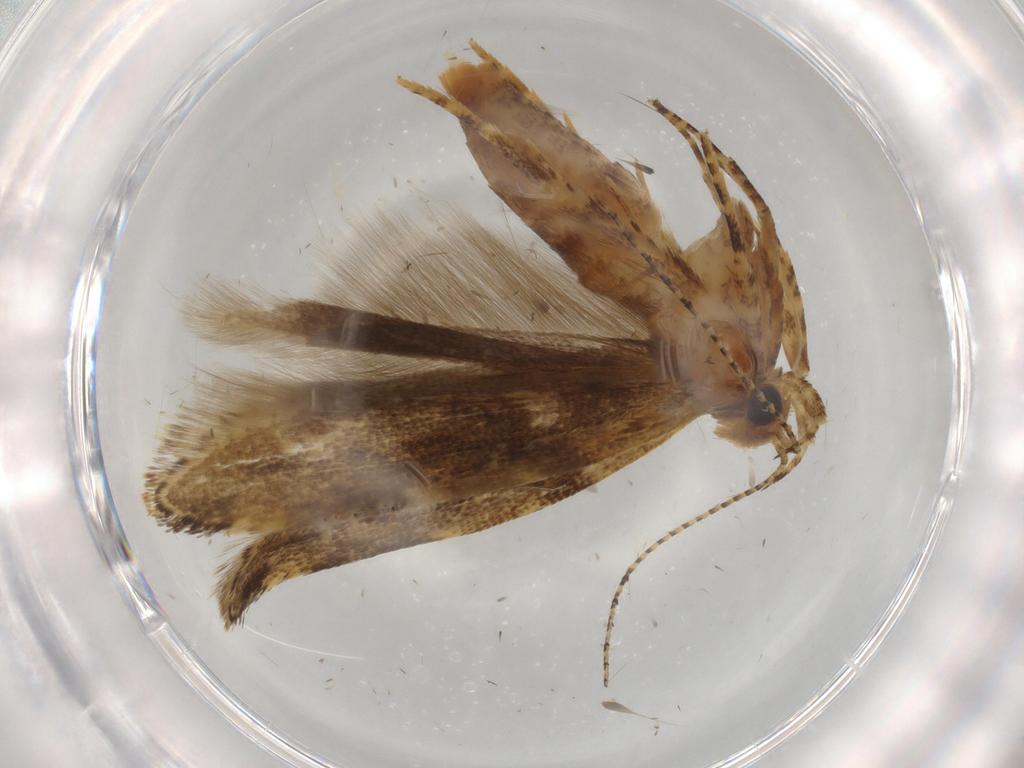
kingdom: Animalia
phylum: Arthropoda
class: Insecta
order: Lepidoptera
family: Gelechiidae
